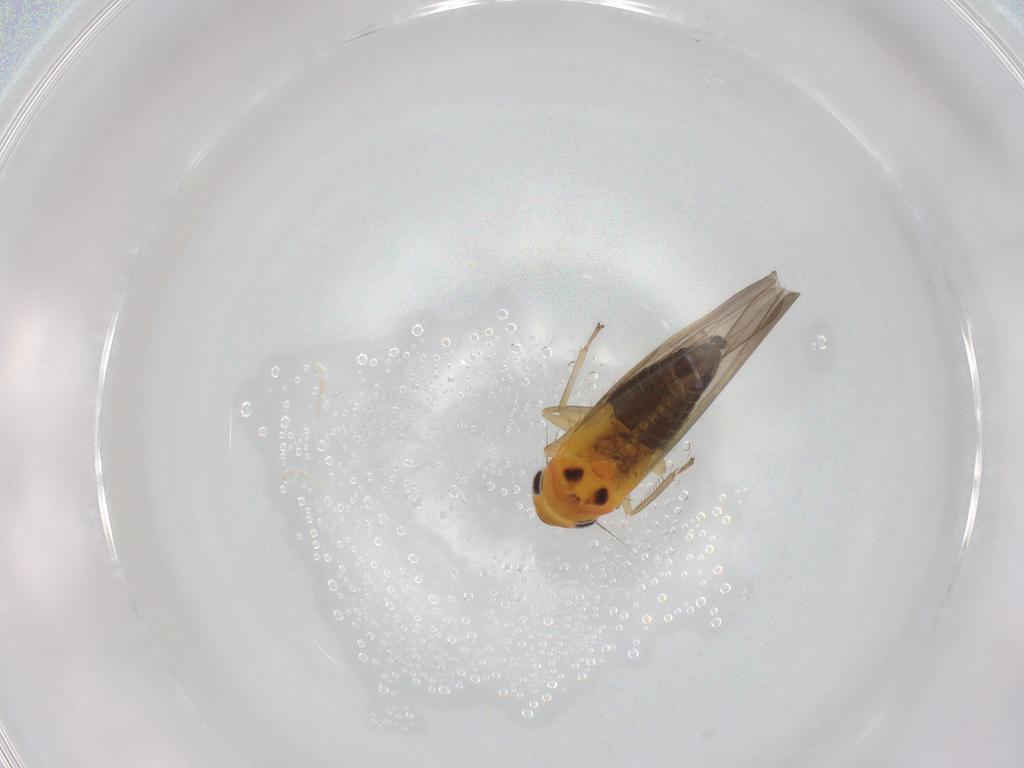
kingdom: Animalia
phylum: Arthropoda
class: Insecta
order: Hemiptera
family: Cicadellidae
